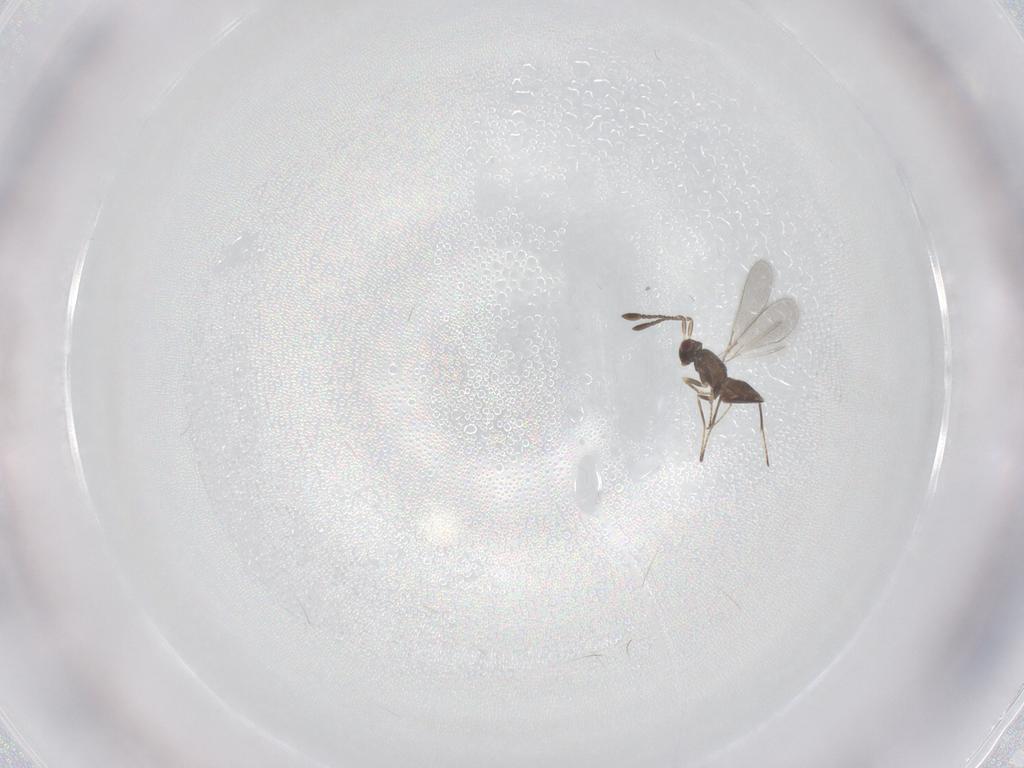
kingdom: Animalia
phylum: Arthropoda
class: Insecta
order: Hymenoptera
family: Mymaridae
